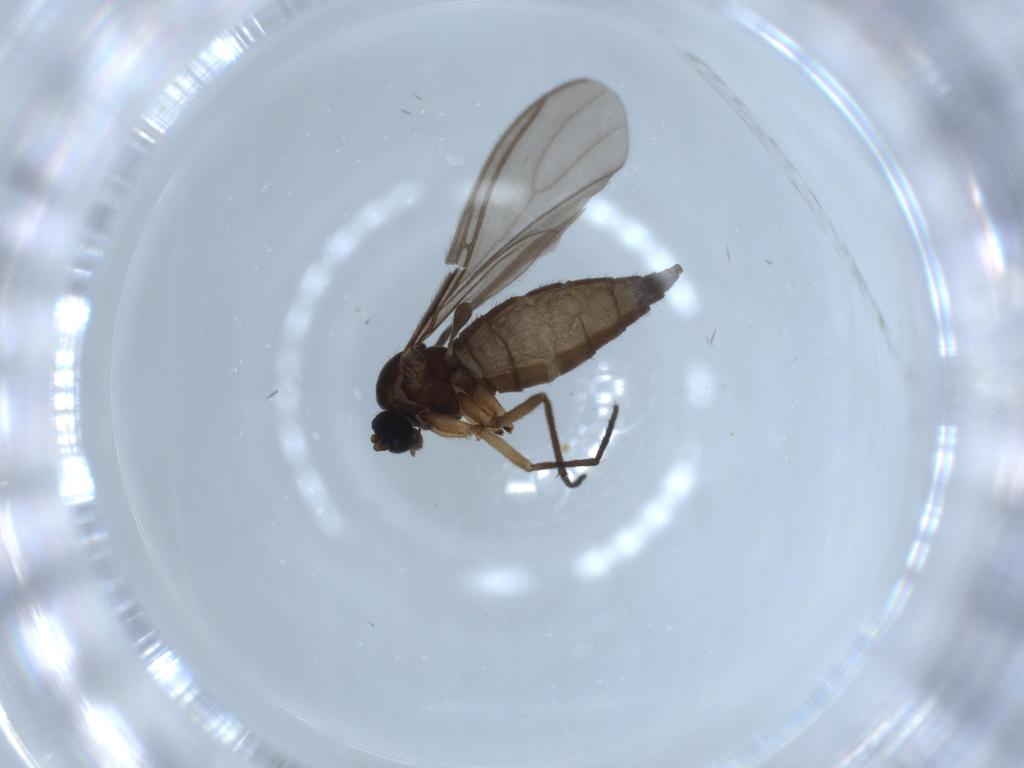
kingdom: Animalia
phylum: Arthropoda
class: Insecta
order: Diptera
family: Sciaridae
